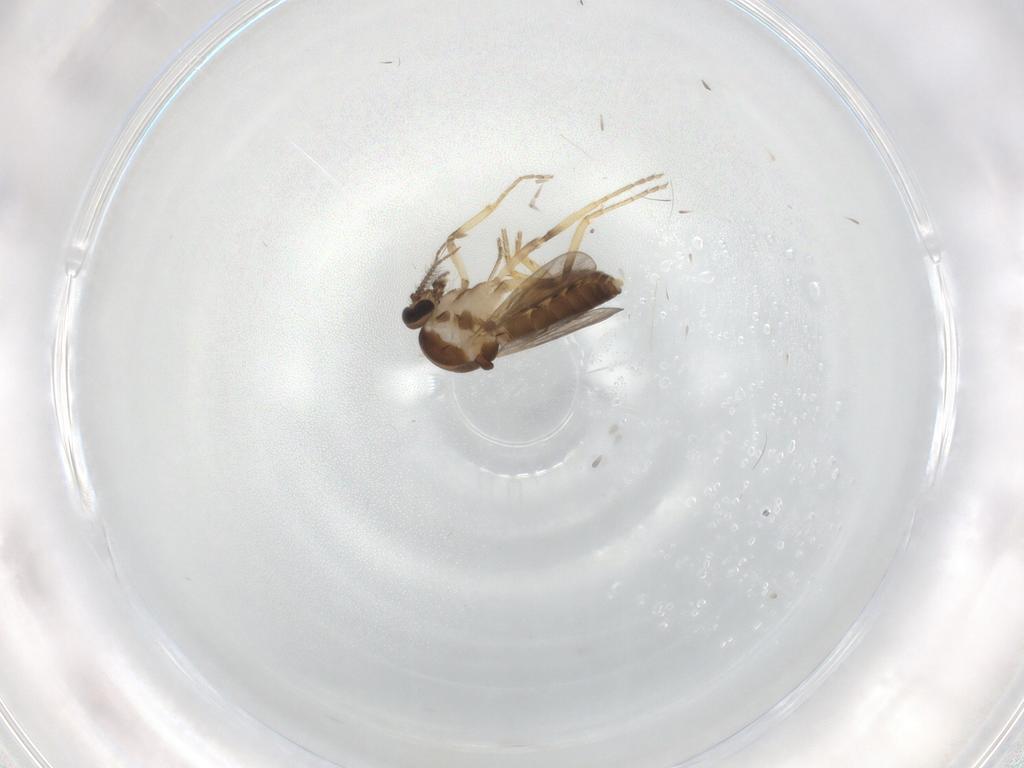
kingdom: Animalia
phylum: Arthropoda
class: Insecta
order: Diptera
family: Ceratopogonidae
